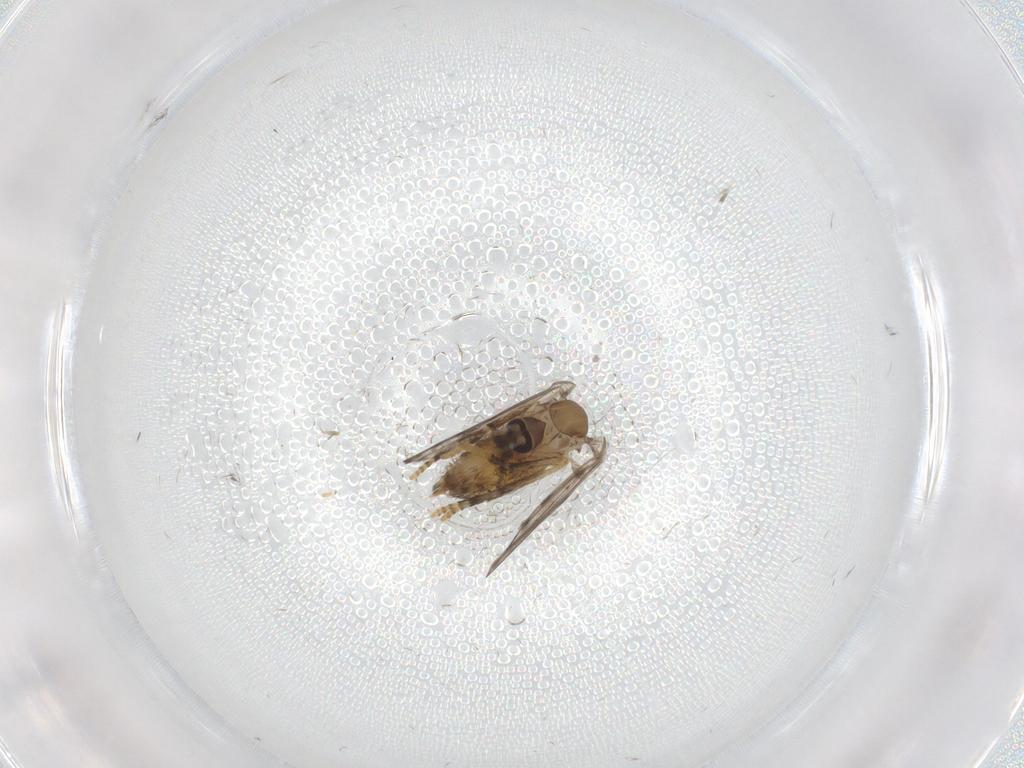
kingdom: Animalia
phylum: Arthropoda
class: Insecta
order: Diptera
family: Psychodidae
